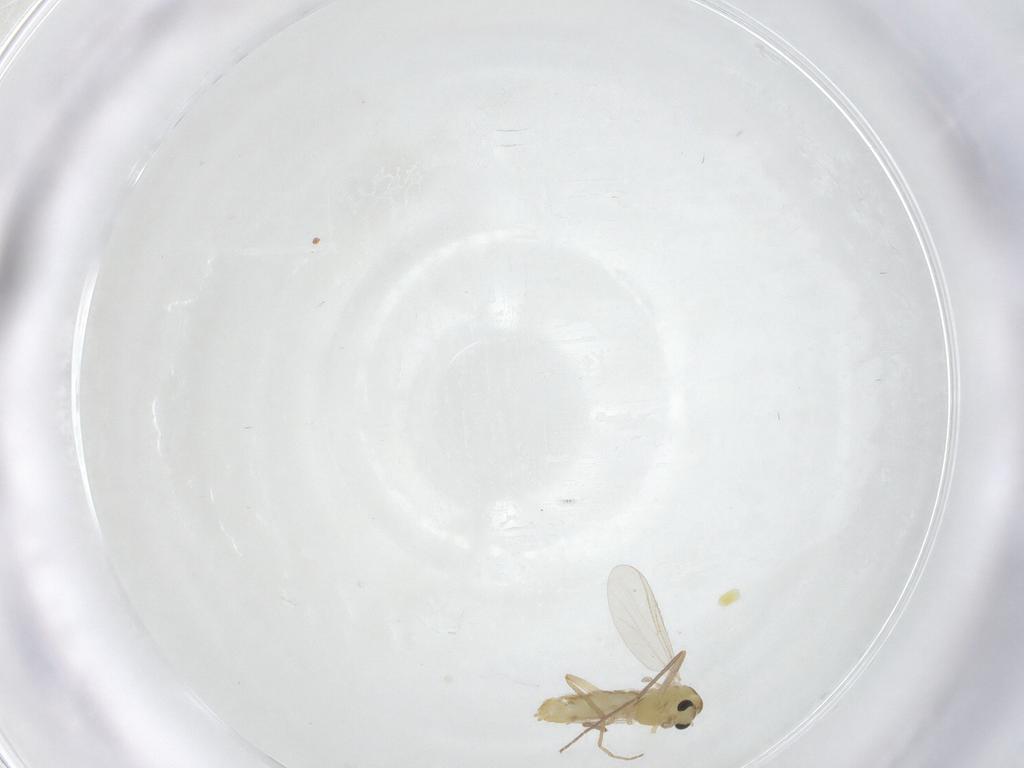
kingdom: Animalia
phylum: Arthropoda
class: Insecta
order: Diptera
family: Chironomidae
